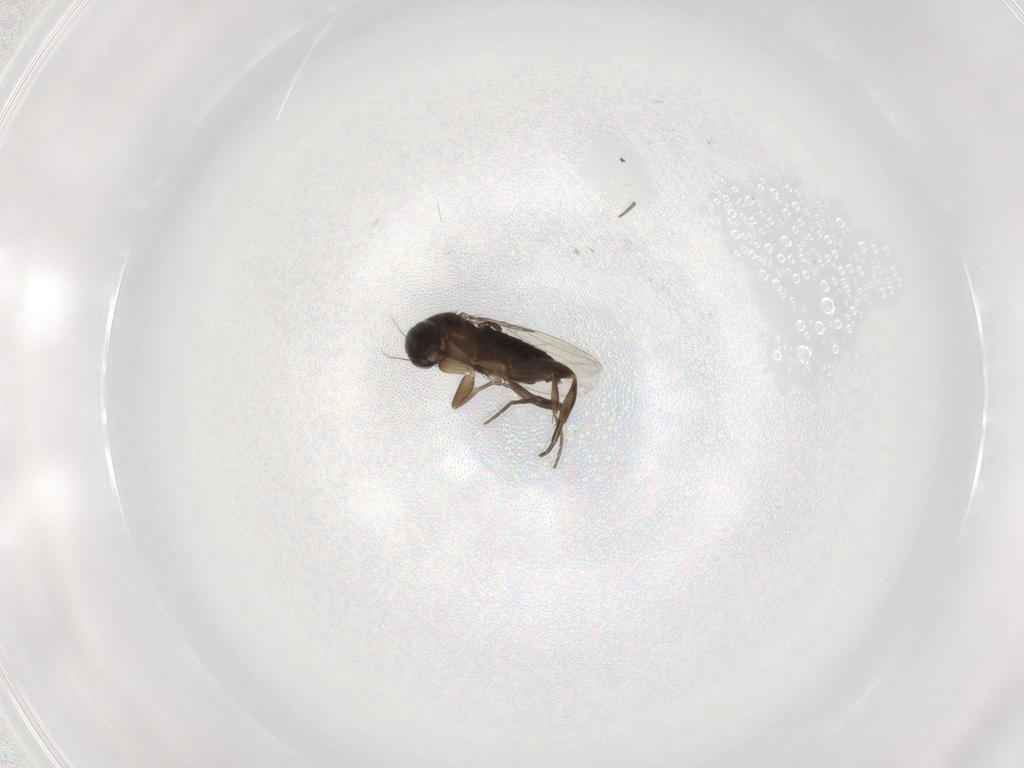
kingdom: Animalia
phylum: Arthropoda
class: Insecta
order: Diptera
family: Phoridae
